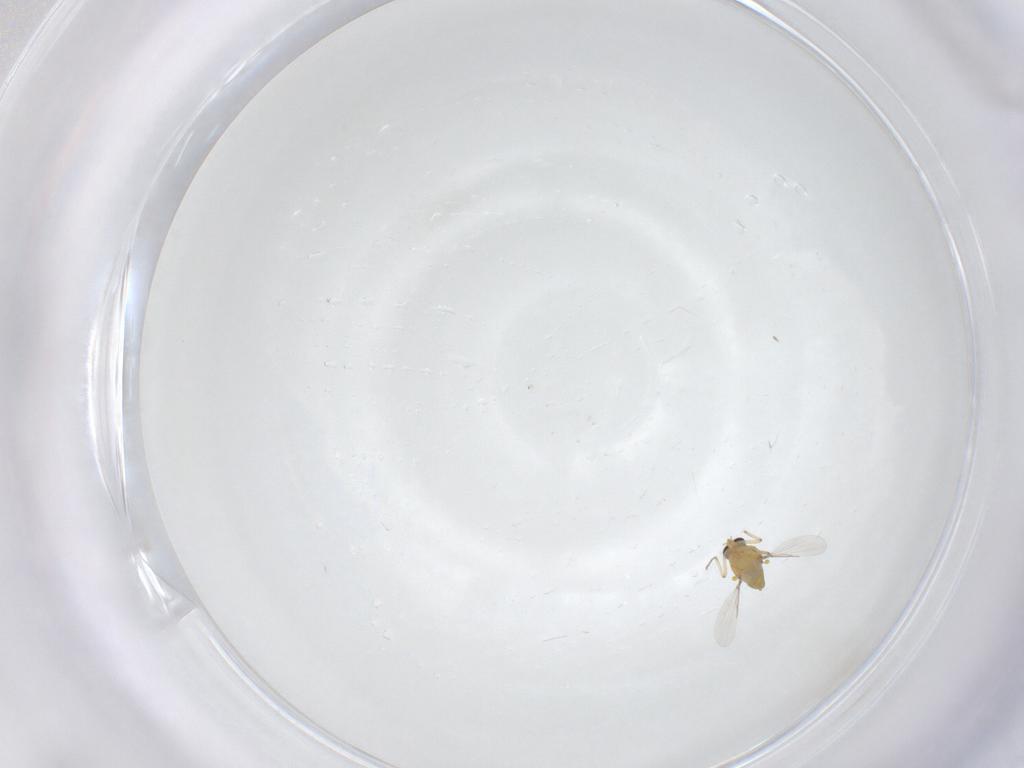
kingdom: Animalia
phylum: Arthropoda
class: Insecta
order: Diptera
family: Ceratopogonidae
